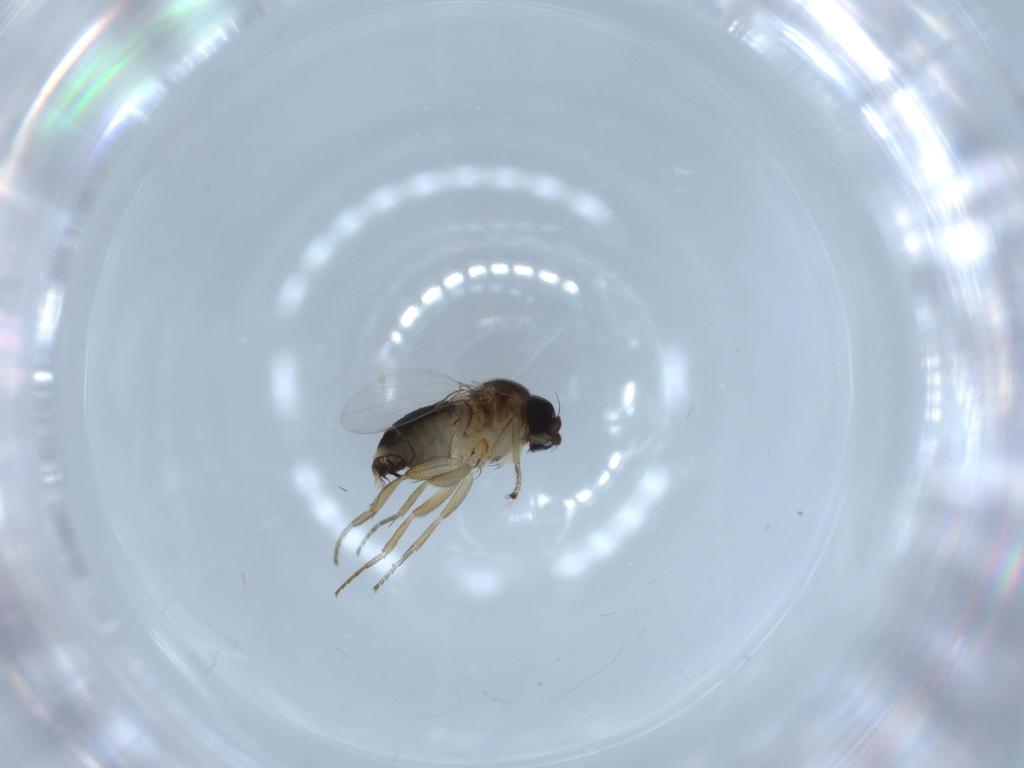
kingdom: Animalia
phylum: Arthropoda
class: Insecta
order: Diptera
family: Phoridae
